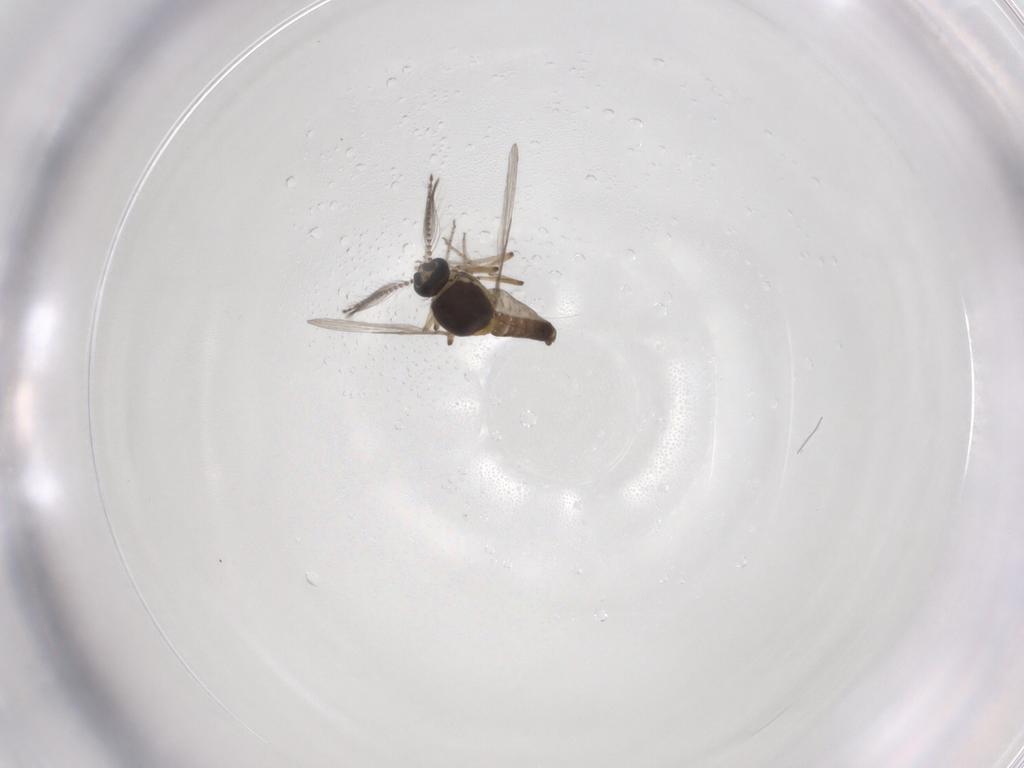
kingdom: Animalia
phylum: Arthropoda
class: Insecta
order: Diptera
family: Ceratopogonidae
